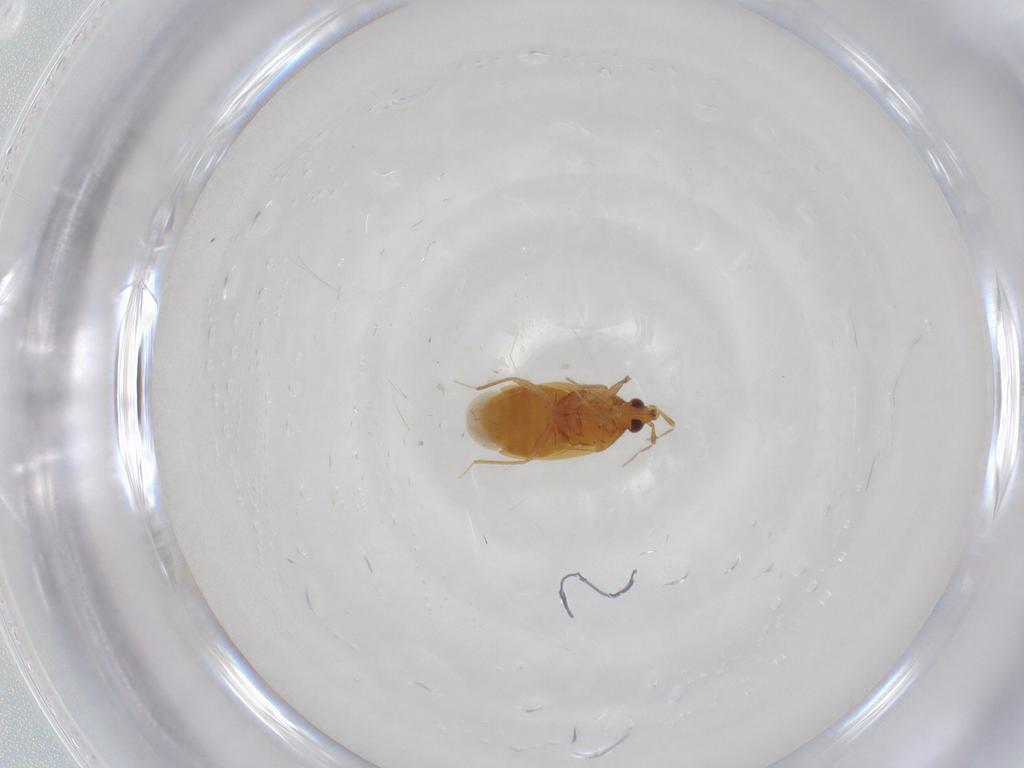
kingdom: Animalia
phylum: Arthropoda
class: Insecta
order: Hemiptera
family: Anthocoridae
